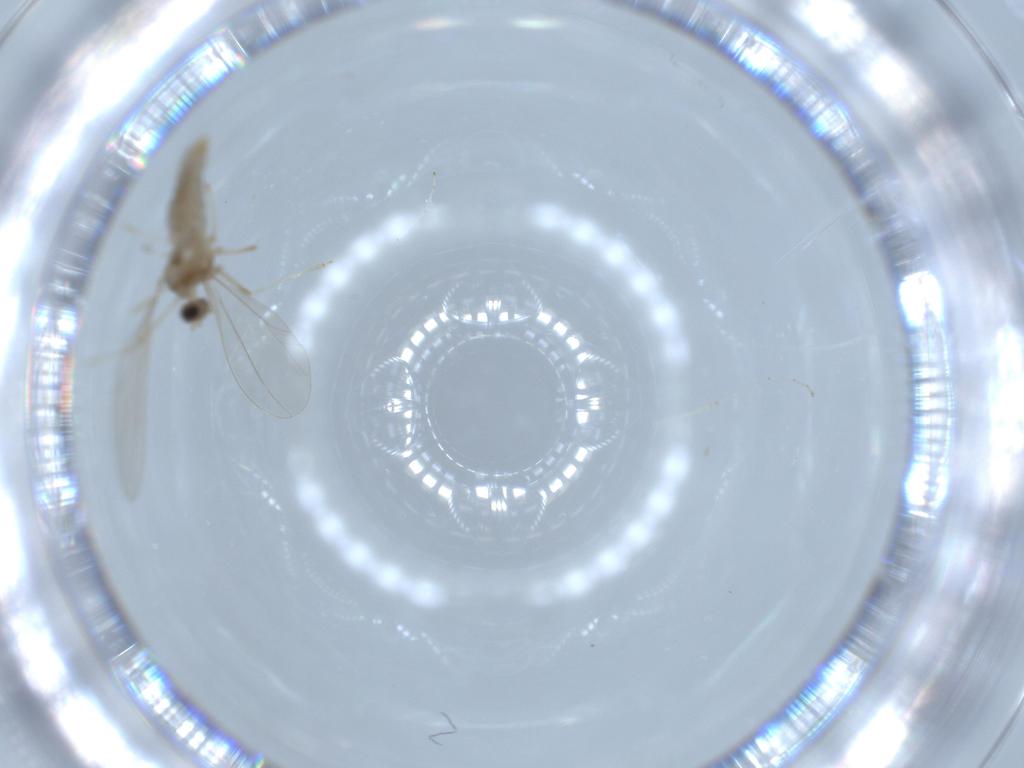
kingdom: Animalia
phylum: Arthropoda
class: Insecta
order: Diptera
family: Cecidomyiidae
